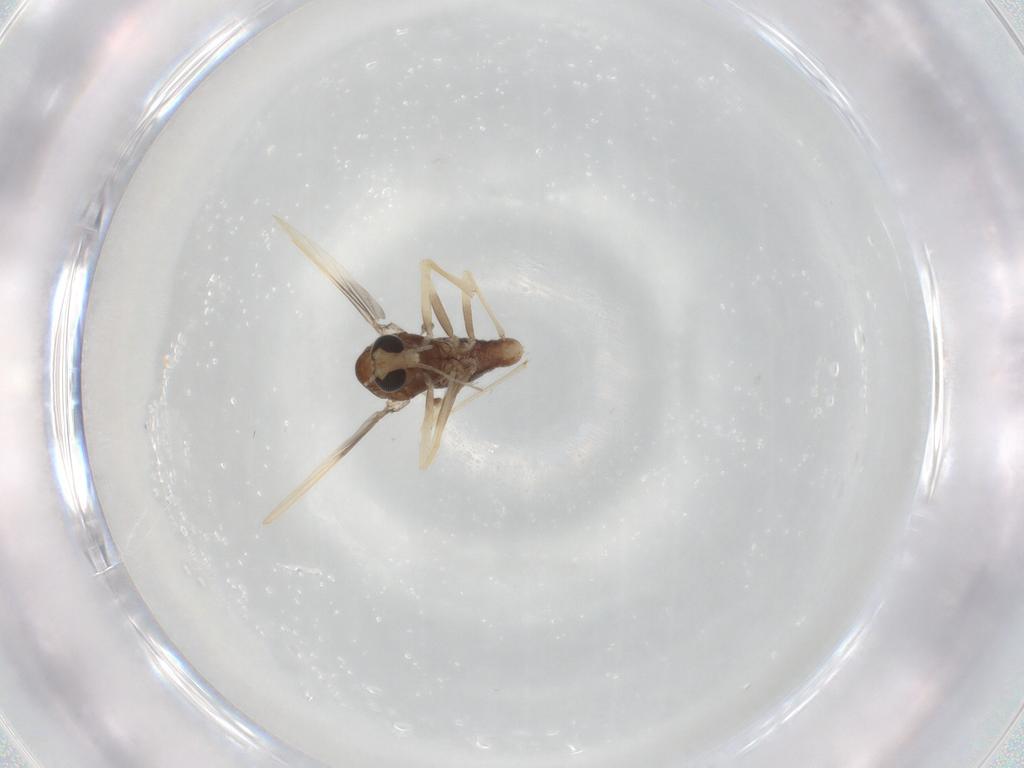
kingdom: Animalia
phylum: Arthropoda
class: Insecta
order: Diptera
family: Chironomidae
